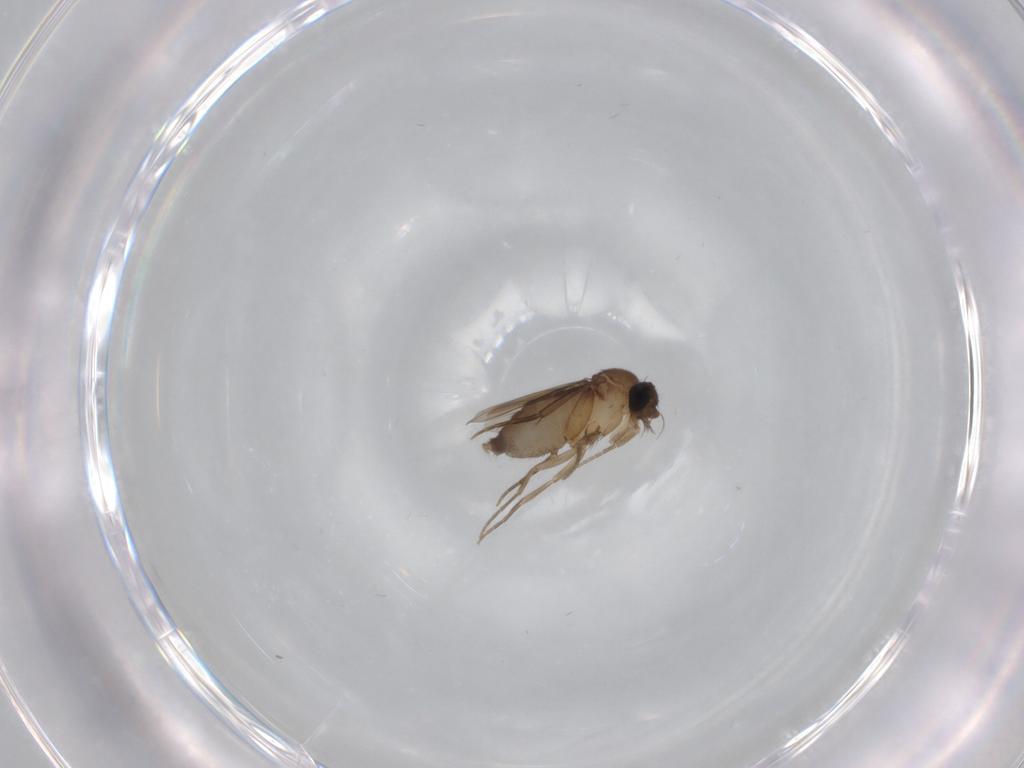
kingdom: Animalia
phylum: Arthropoda
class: Insecta
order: Diptera
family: Phoridae
